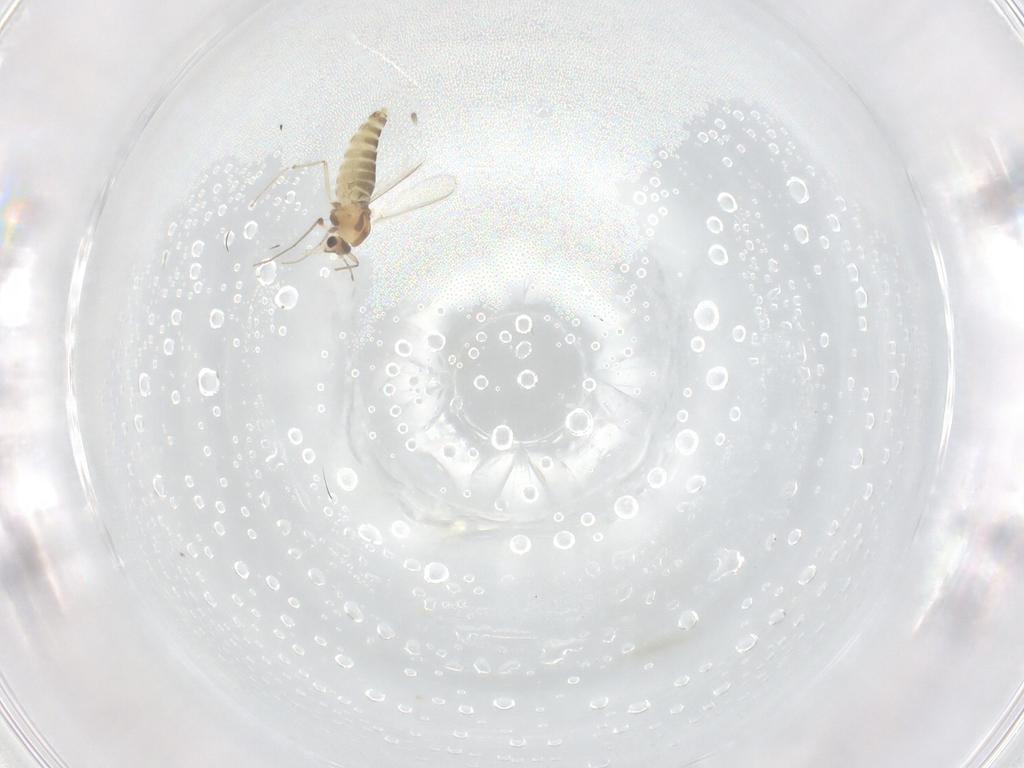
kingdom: Animalia
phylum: Arthropoda
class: Insecta
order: Diptera
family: Chironomidae
